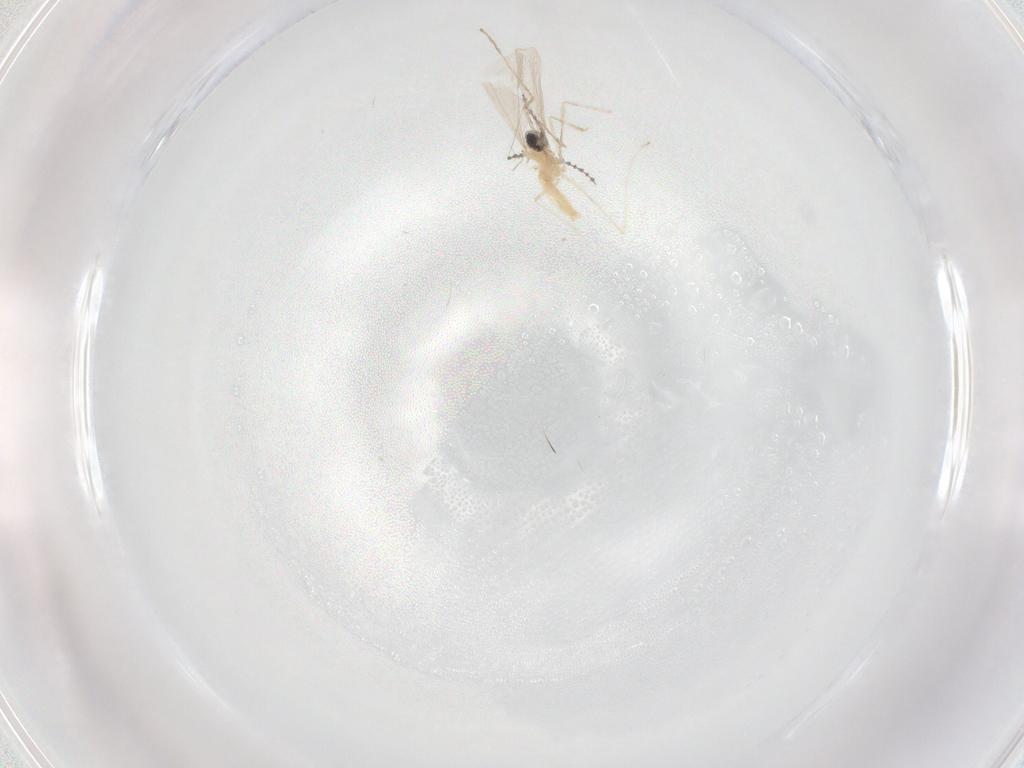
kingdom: Animalia
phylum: Arthropoda
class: Insecta
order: Diptera
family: Cecidomyiidae
